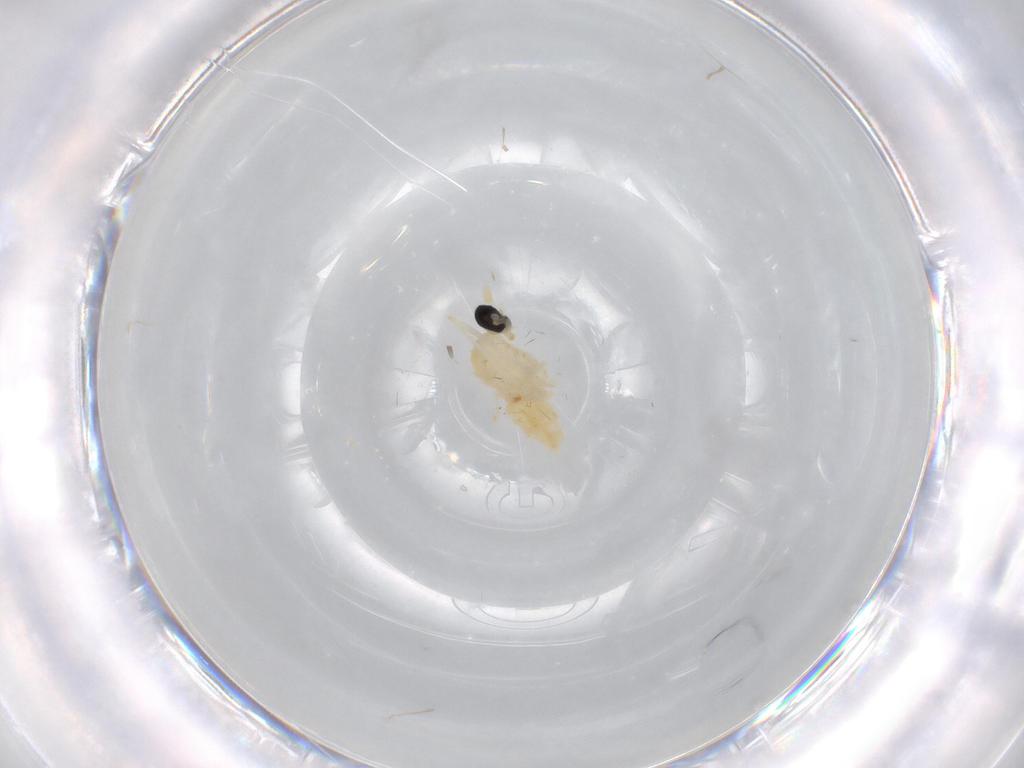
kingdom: Animalia
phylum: Arthropoda
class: Insecta
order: Diptera
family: Cecidomyiidae
